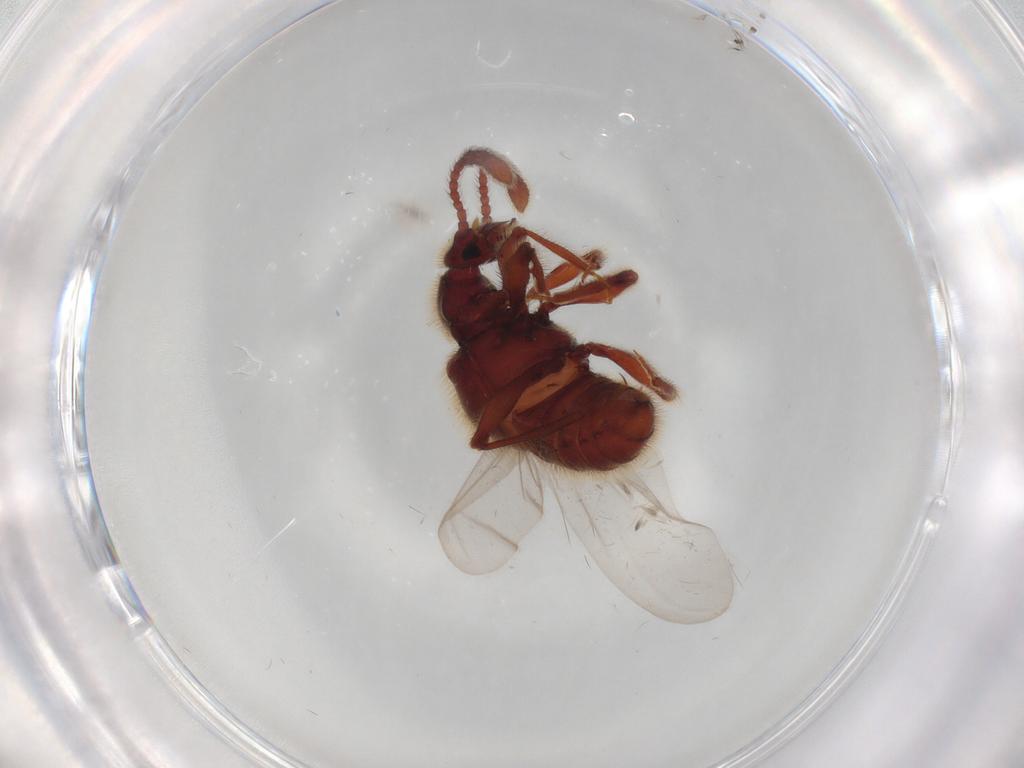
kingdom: Animalia
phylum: Arthropoda
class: Insecta
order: Coleoptera
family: Staphylinidae
